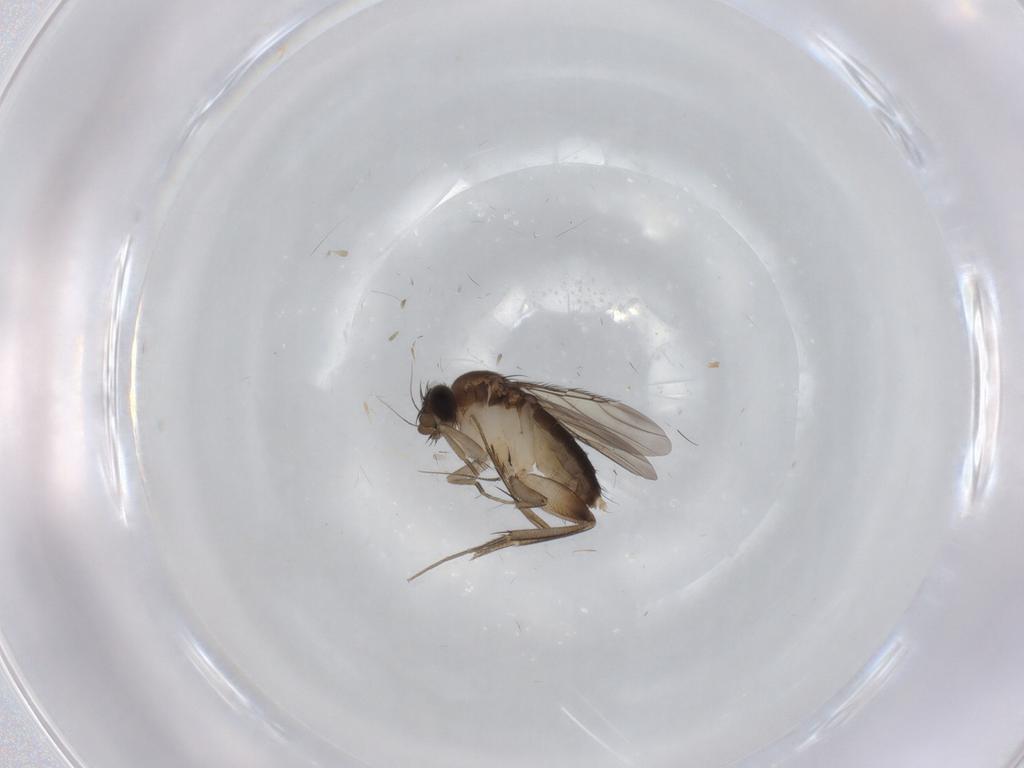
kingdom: Animalia
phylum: Arthropoda
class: Insecta
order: Diptera
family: Phoridae
